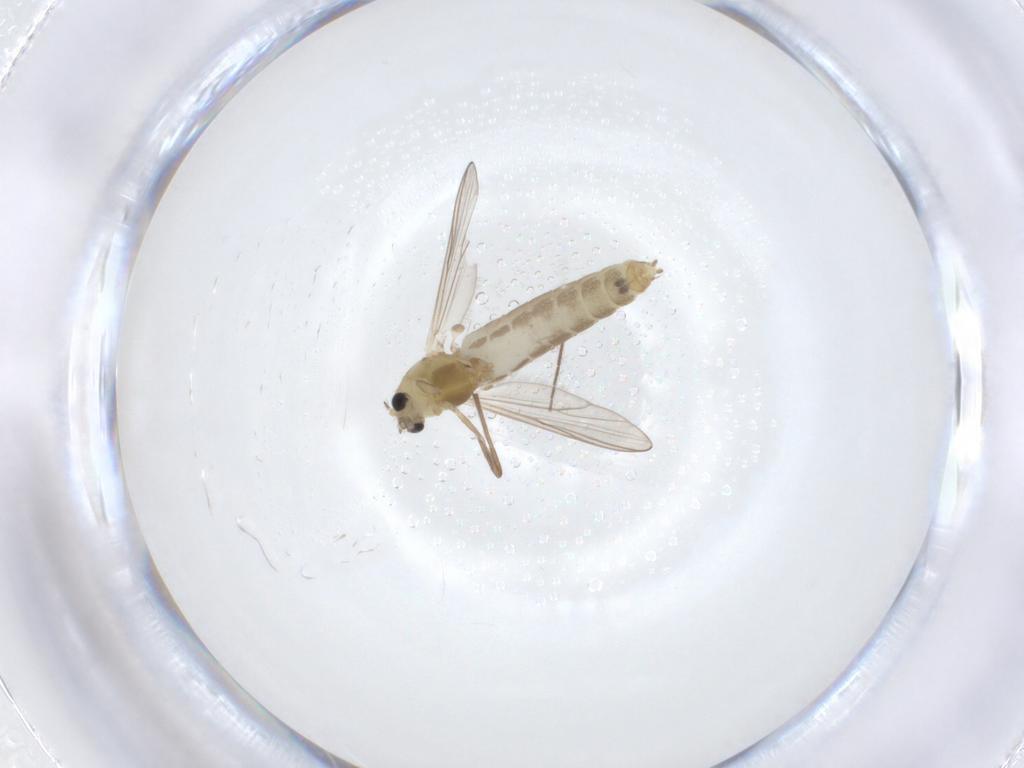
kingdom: Animalia
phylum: Arthropoda
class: Insecta
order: Diptera
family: Chironomidae
